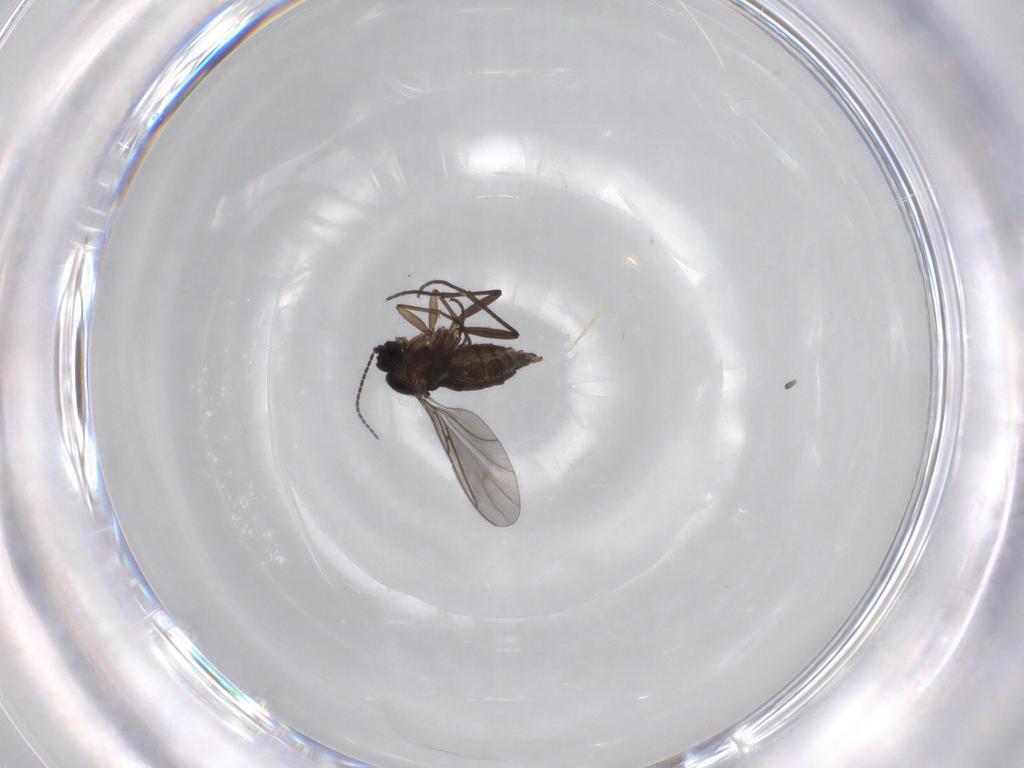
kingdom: Animalia
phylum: Arthropoda
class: Insecta
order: Diptera
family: Sciaridae
